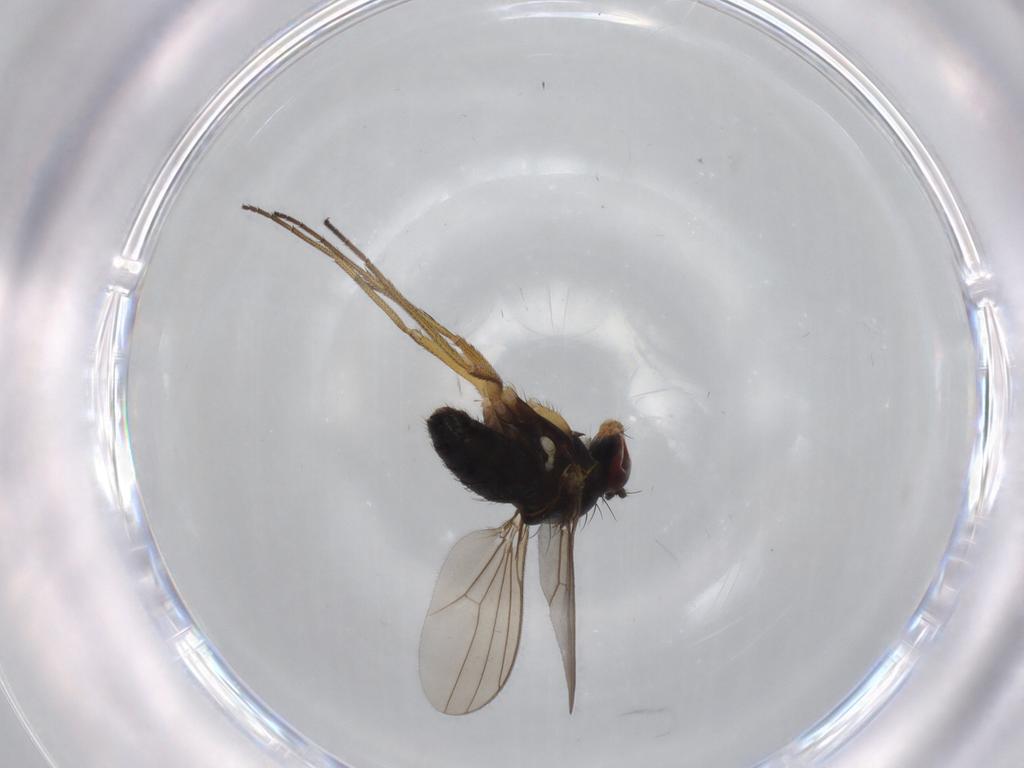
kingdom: Animalia
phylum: Arthropoda
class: Insecta
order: Diptera
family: Dolichopodidae
